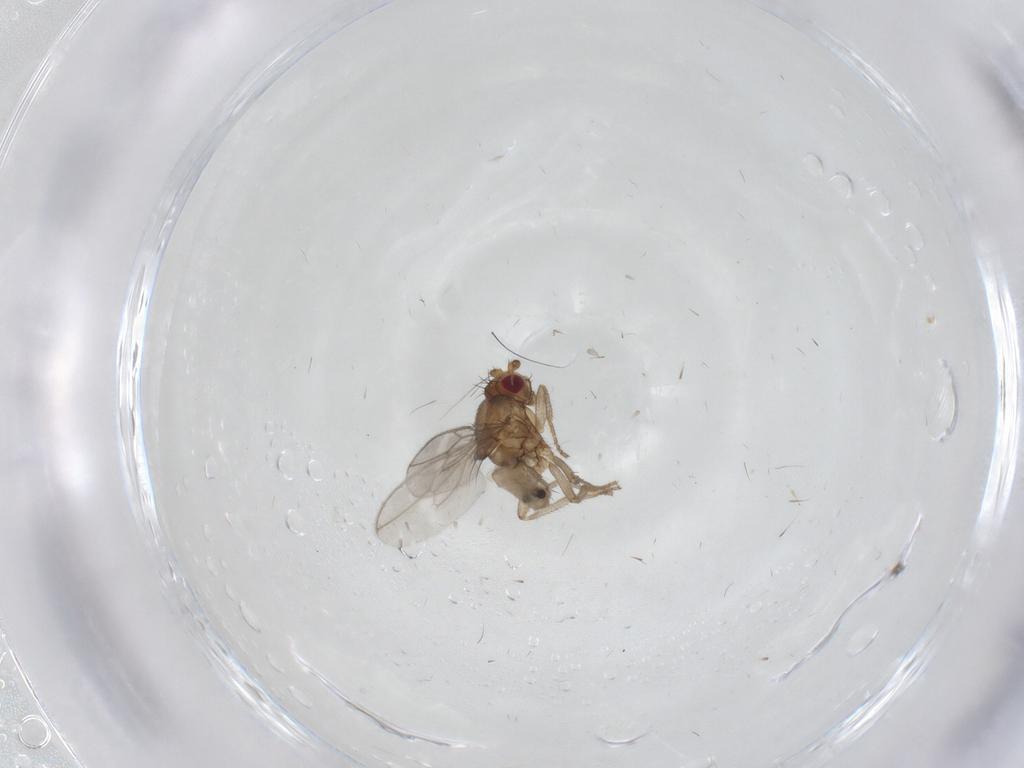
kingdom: Animalia
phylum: Arthropoda
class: Insecta
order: Diptera
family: Sphaeroceridae
